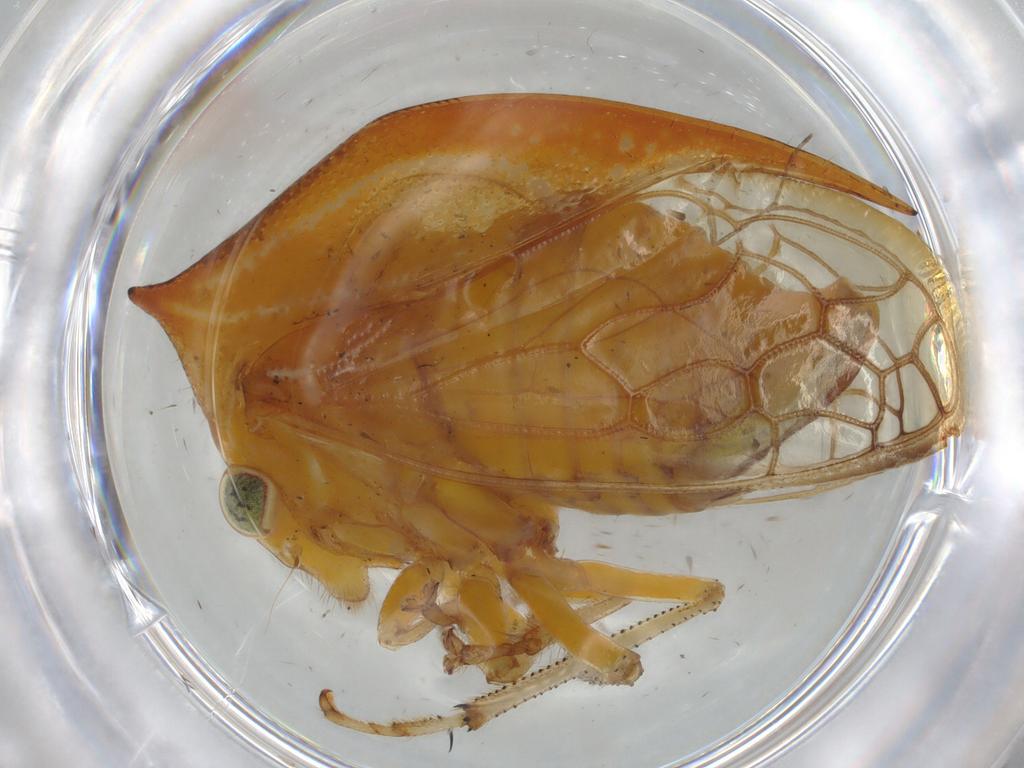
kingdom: Animalia
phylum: Arthropoda
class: Insecta
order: Hemiptera
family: Membracidae
